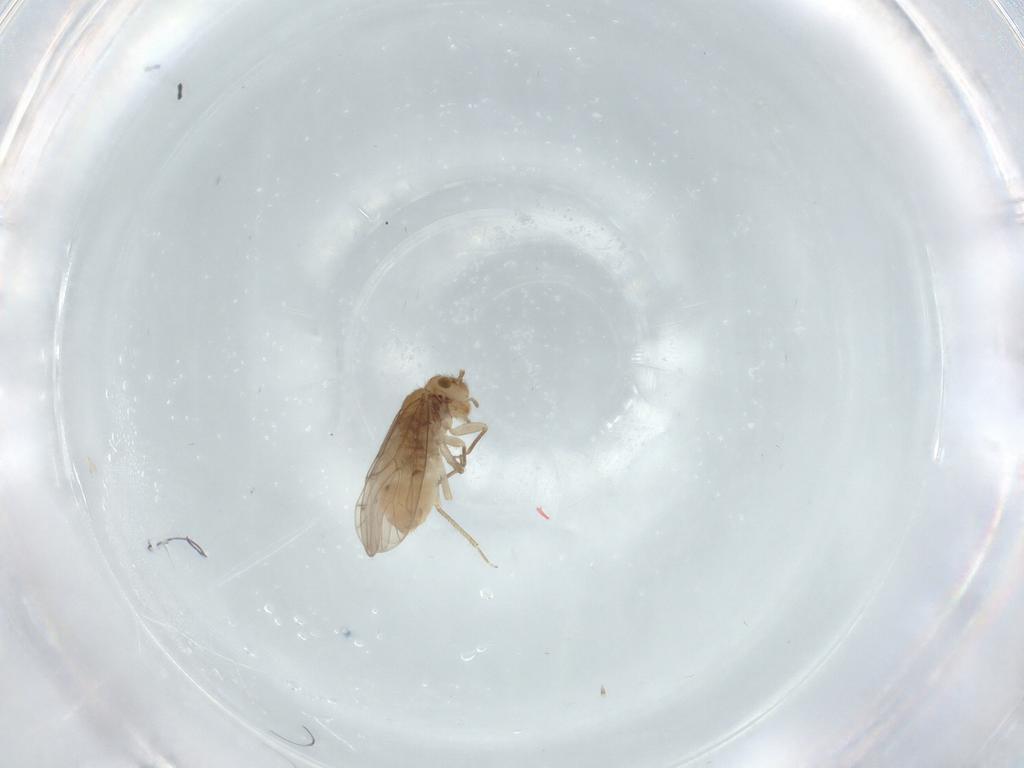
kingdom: Animalia
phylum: Arthropoda
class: Insecta
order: Psocodea
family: Ectopsocidae
